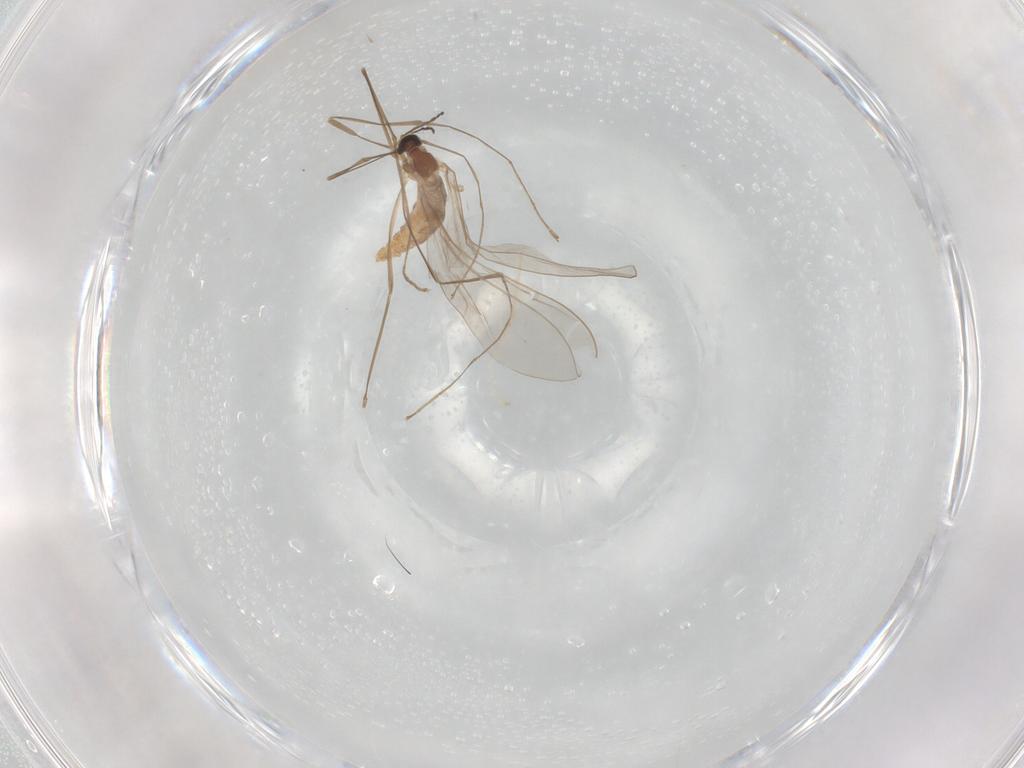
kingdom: Animalia
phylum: Arthropoda
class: Insecta
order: Diptera
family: Cecidomyiidae
